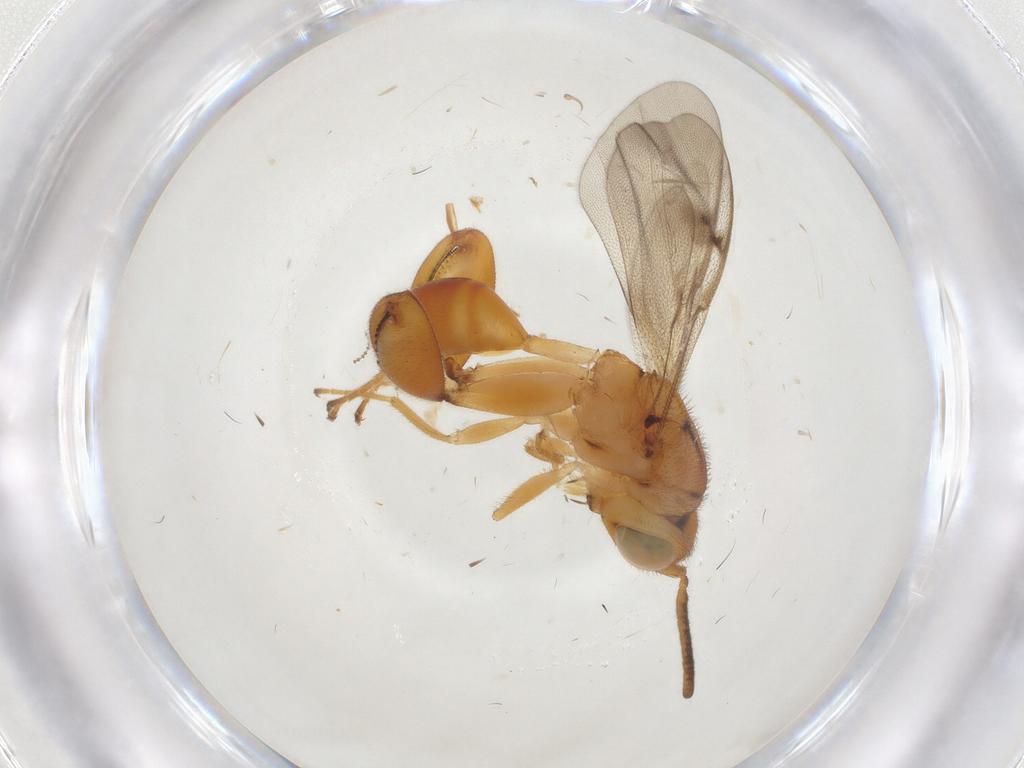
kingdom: Animalia
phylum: Arthropoda
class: Insecta
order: Hymenoptera
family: Chalcididae
